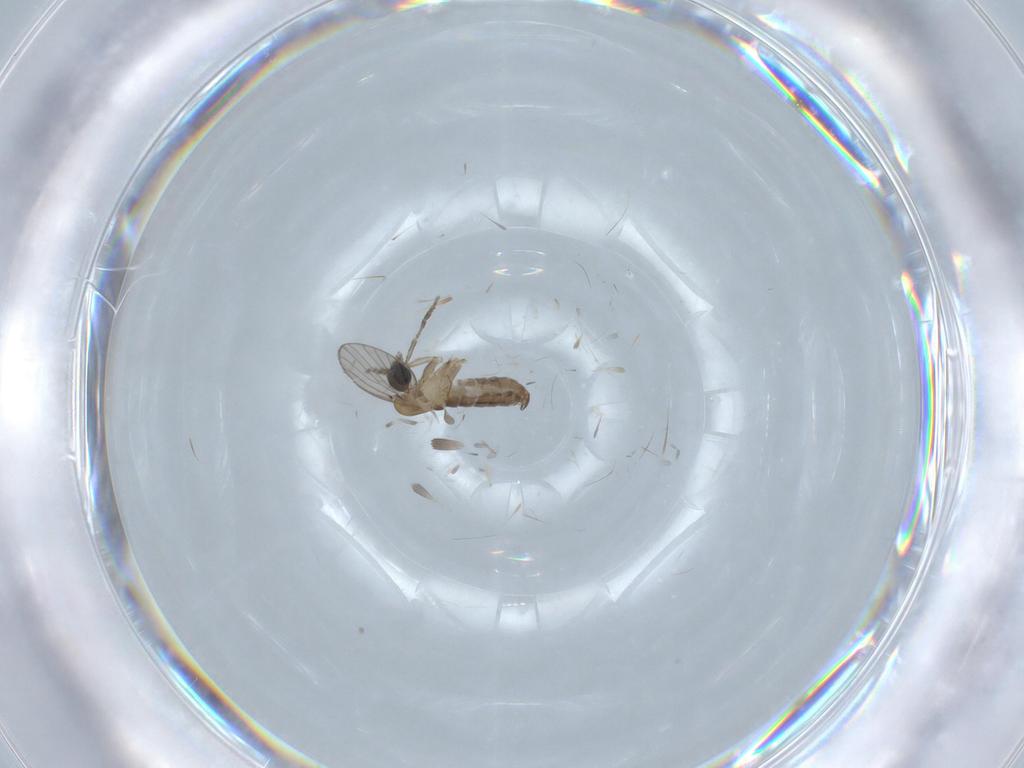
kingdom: Animalia
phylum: Arthropoda
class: Insecta
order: Diptera
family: Psychodidae
